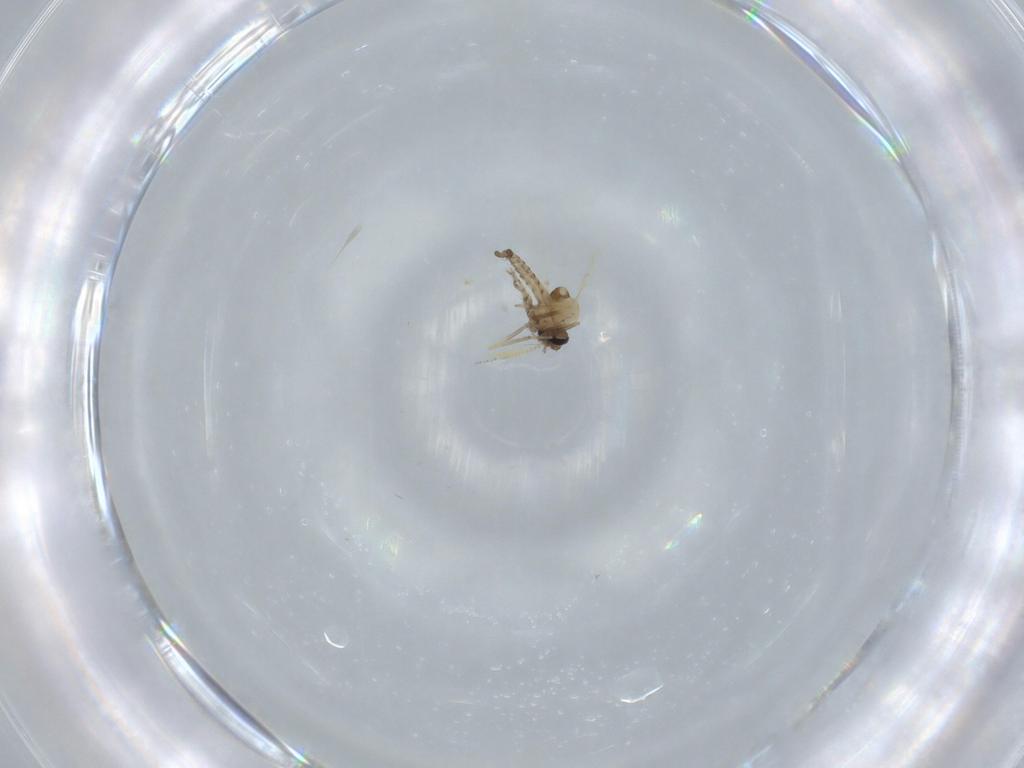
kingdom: Animalia
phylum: Arthropoda
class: Insecta
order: Diptera
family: Ceratopogonidae
